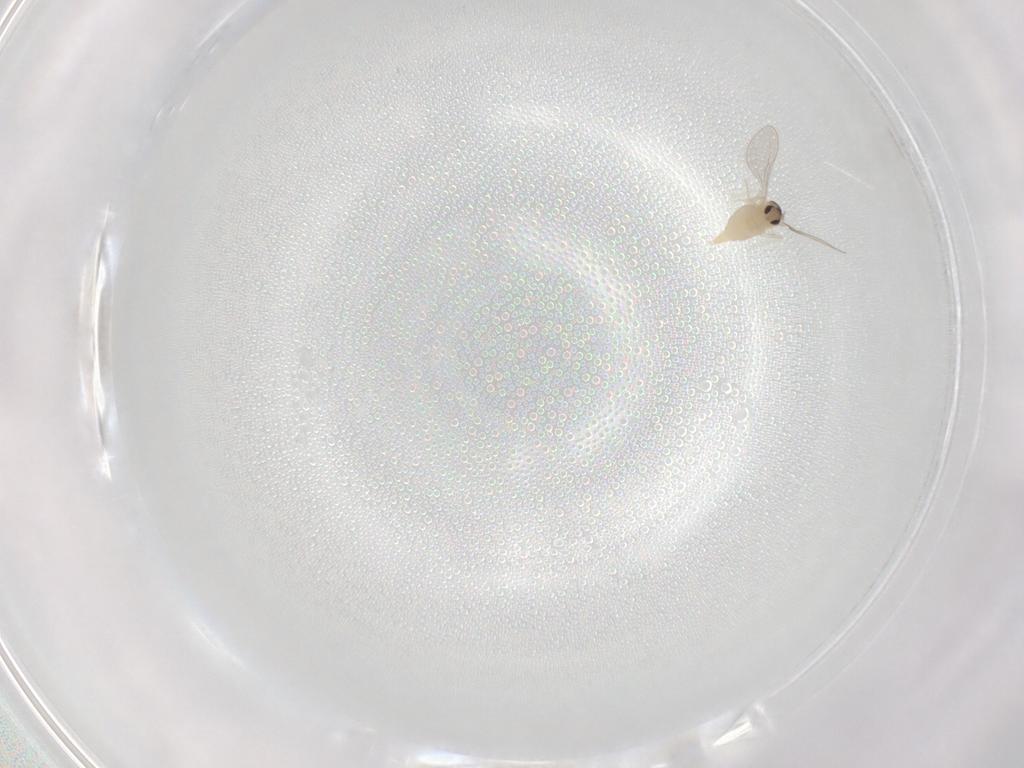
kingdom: Animalia
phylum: Arthropoda
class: Insecta
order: Diptera
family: Cecidomyiidae
